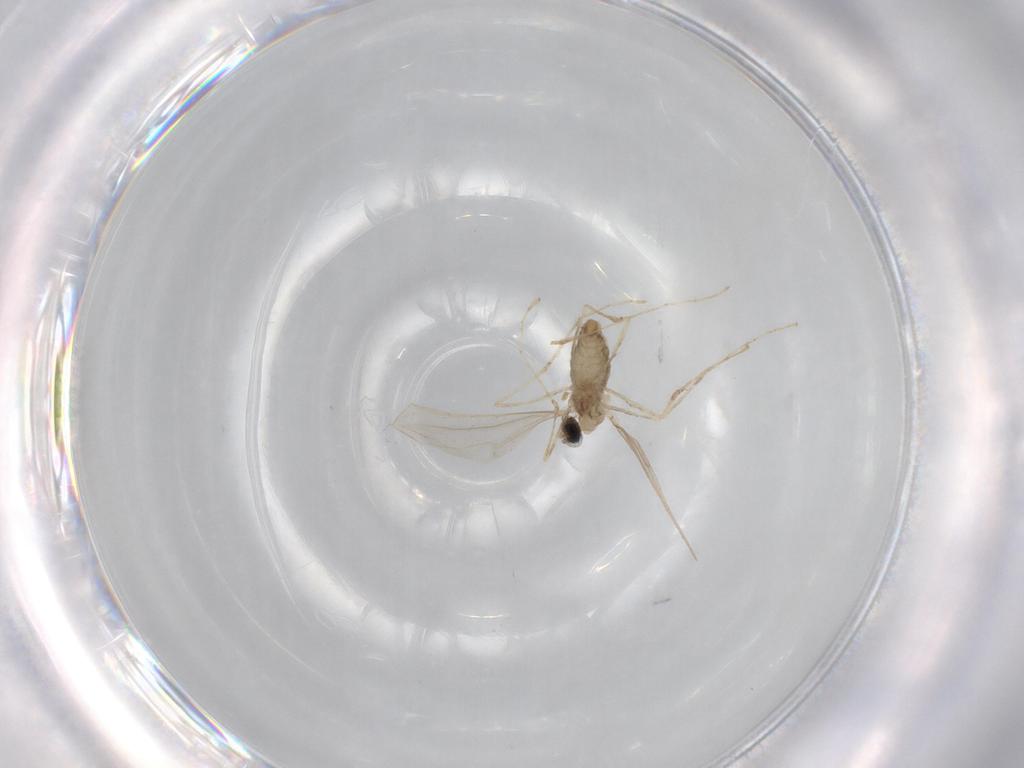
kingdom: Animalia
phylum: Arthropoda
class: Insecta
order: Diptera
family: Cecidomyiidae
